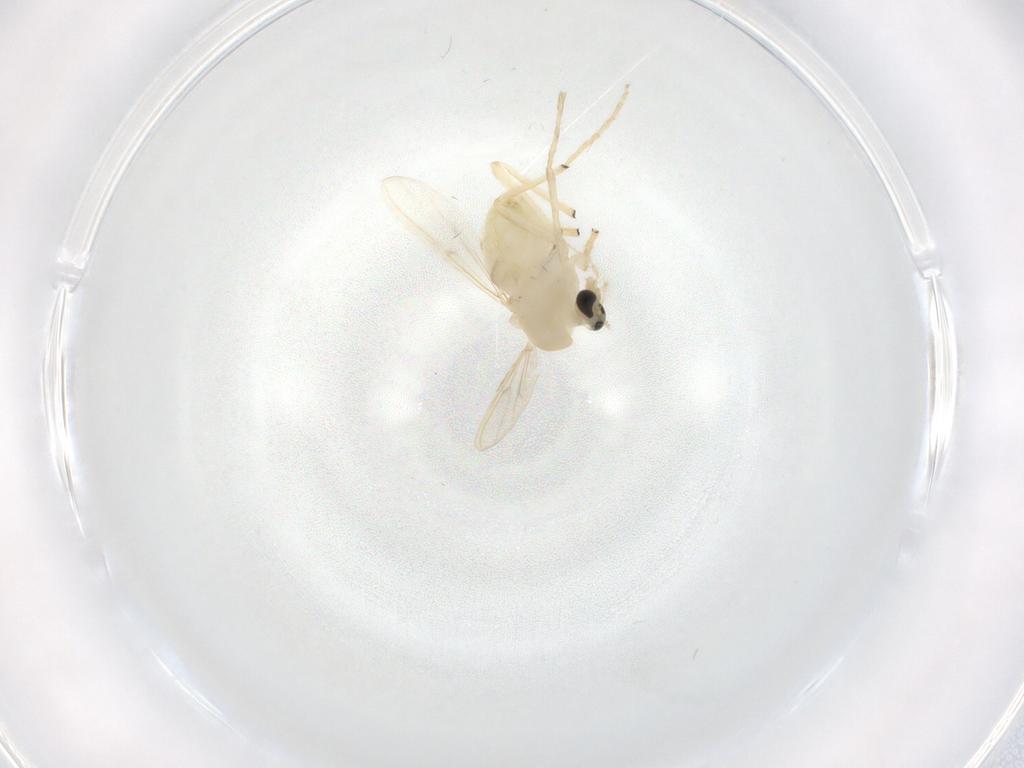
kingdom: Animalia
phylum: Arthropoda
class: Insecta
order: Diptera
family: Chironomidae
